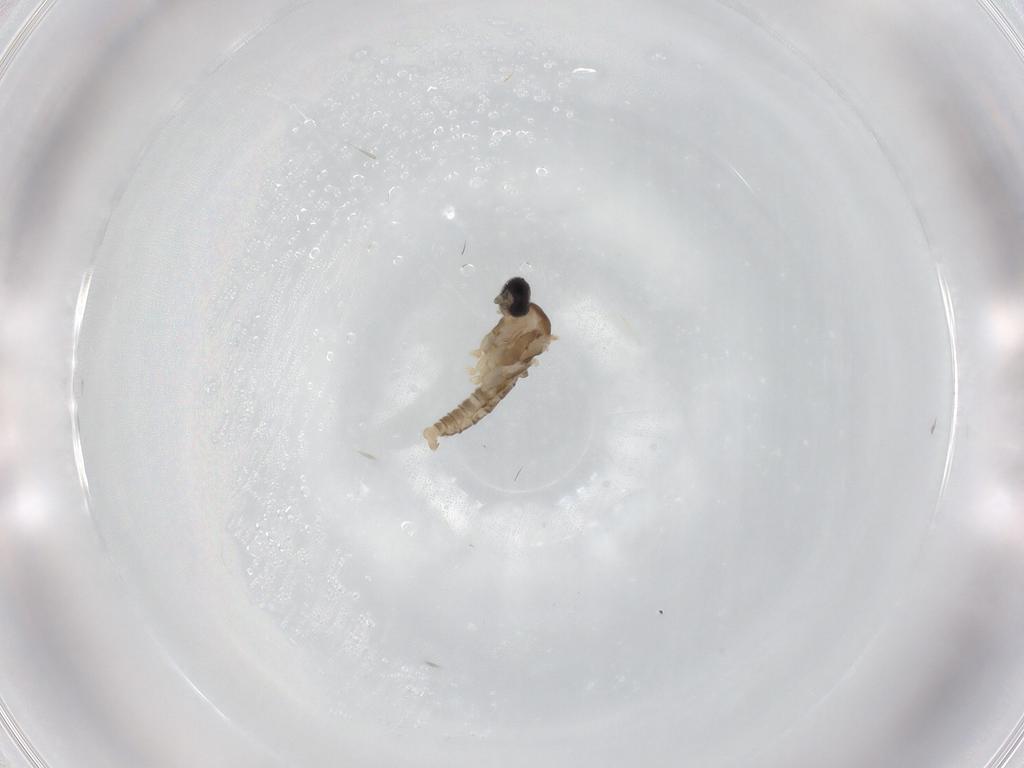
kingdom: Animalia
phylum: Arthropoda
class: Insecta
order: Diptera
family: Cecidomyiidae
